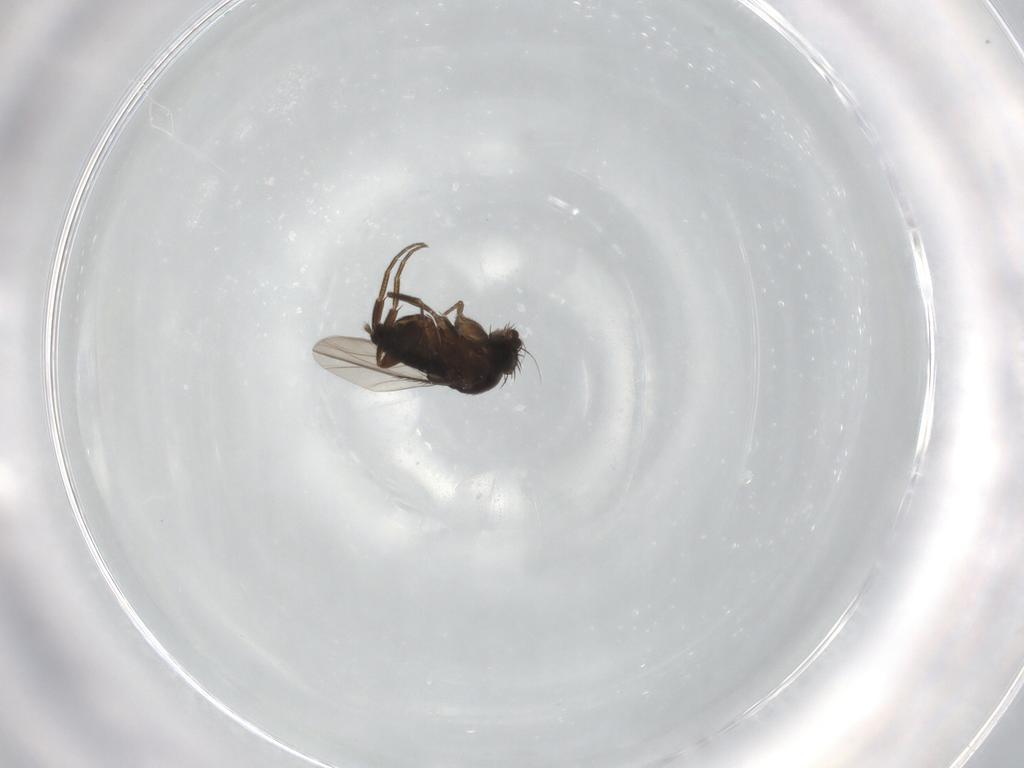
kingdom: Animalia
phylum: Arthropoda
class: Insecta
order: Diptera
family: Phoridae
